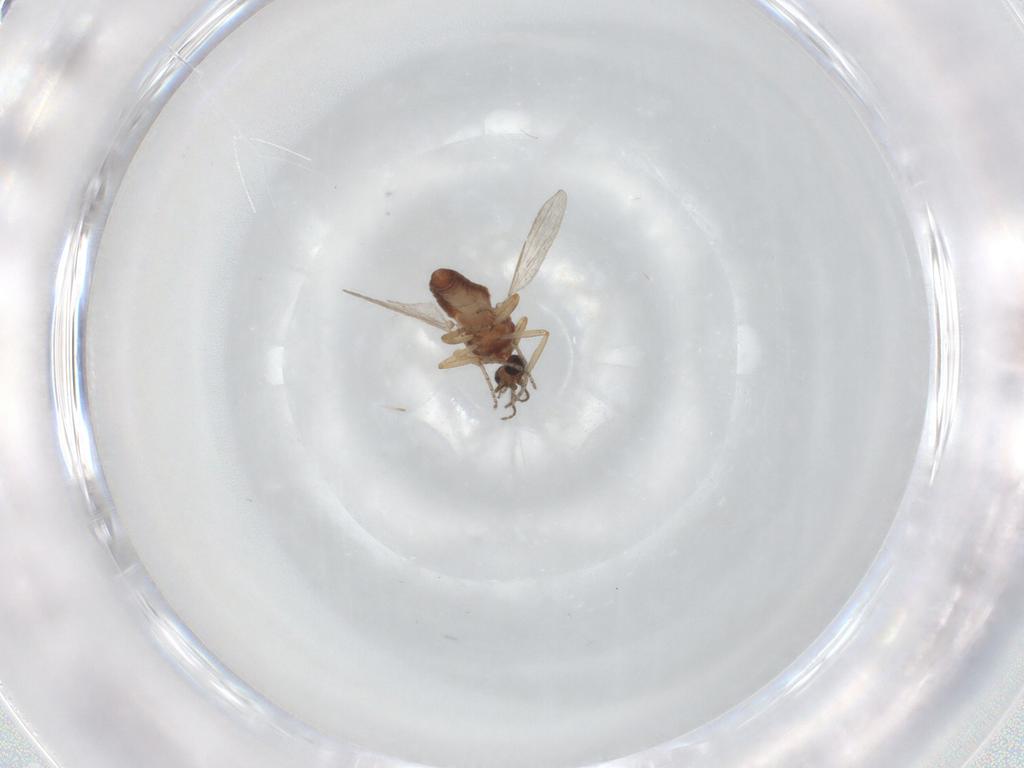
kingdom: Animalia
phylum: Arthropoda
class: Insecta
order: Diptera
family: Ceratopogonidae
